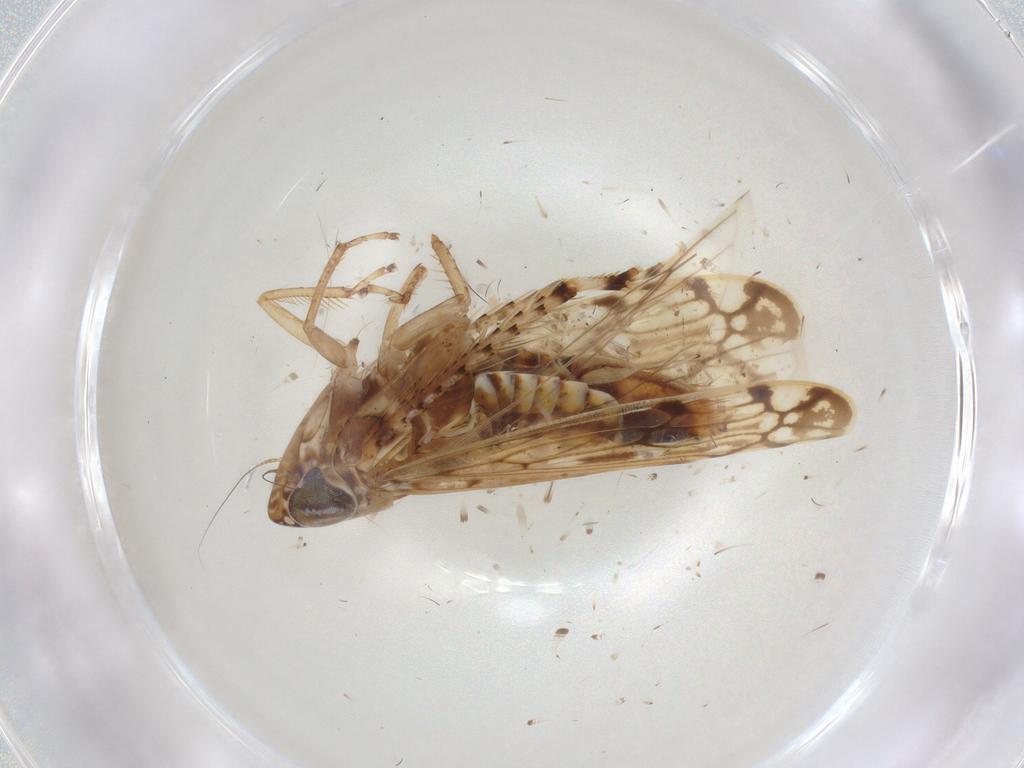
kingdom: Animalia
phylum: Arthropoda
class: Insecta
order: Hemiptera
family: Cicadellidae
